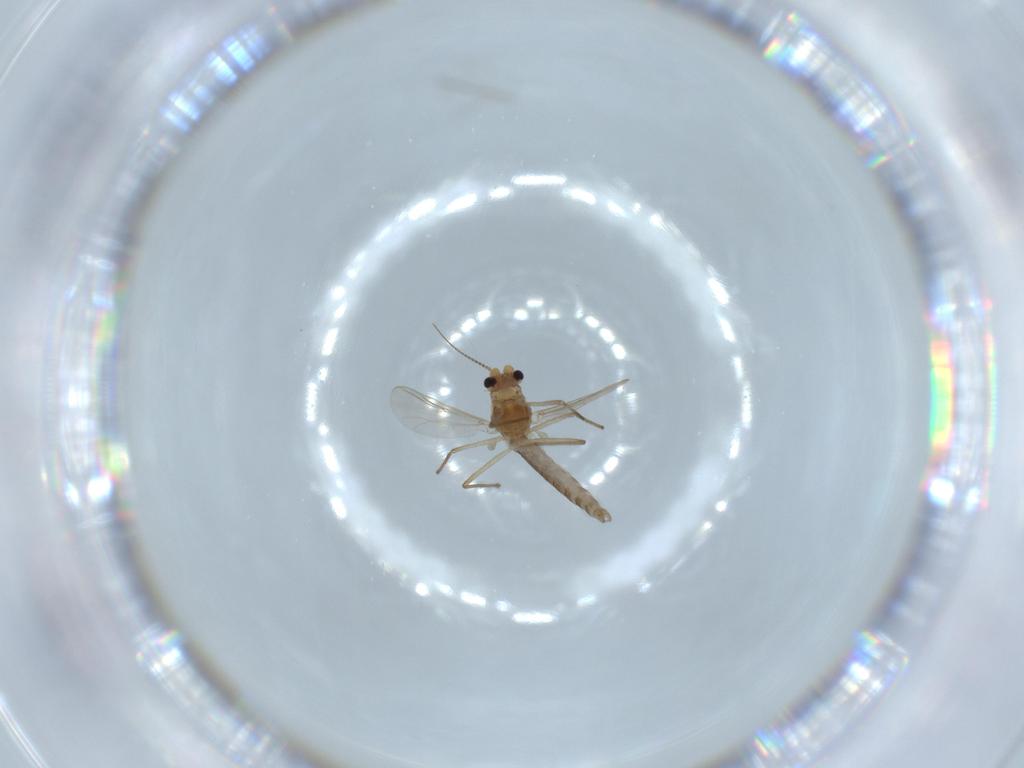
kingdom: Animalia
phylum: Arthropoda
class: Insecta
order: Diptera
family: Chironomidae
